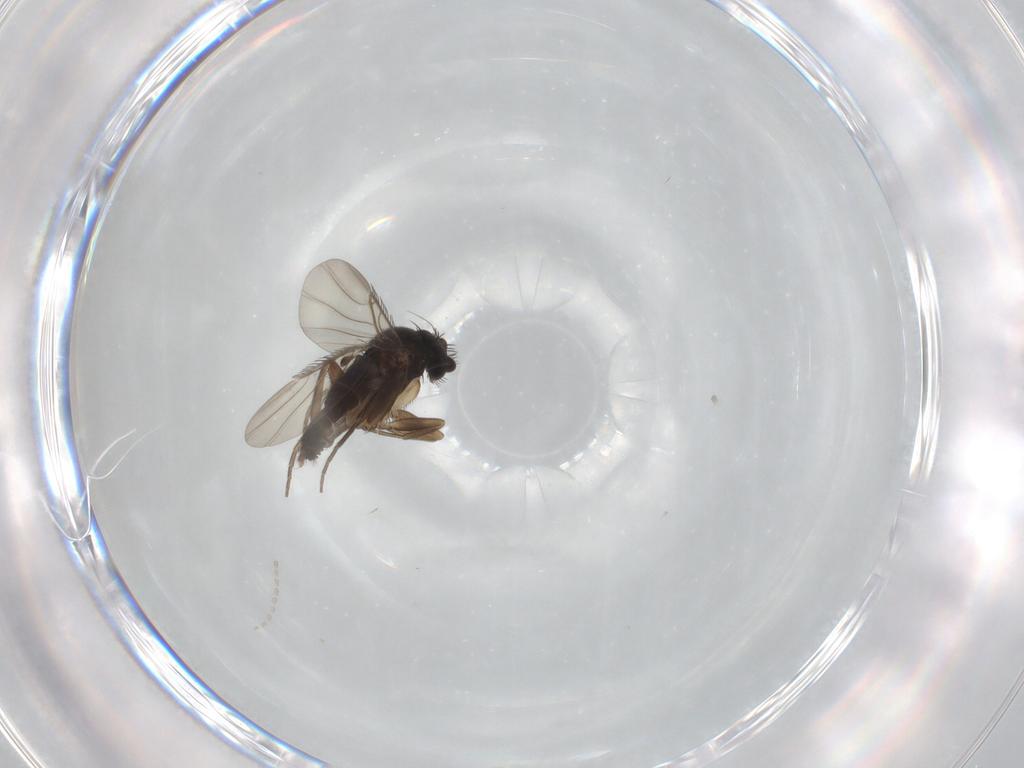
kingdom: Animalia
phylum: Arthropoda
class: Insecta
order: Diptera
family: Phoridae
